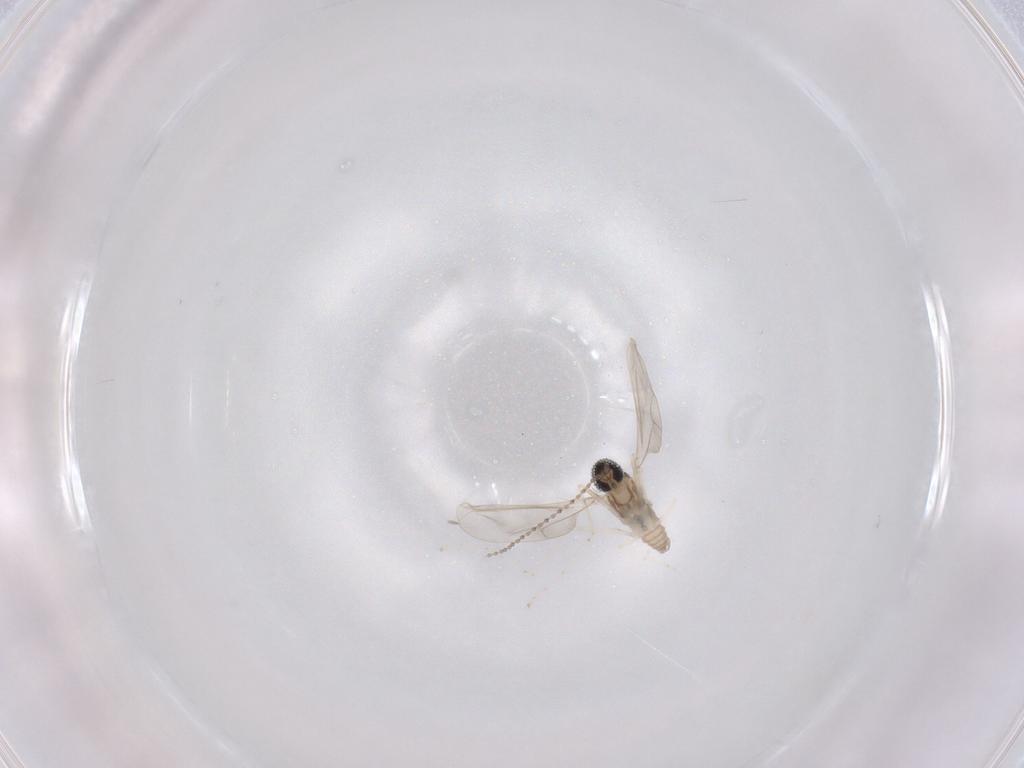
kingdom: Animalia
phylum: Arthropoda
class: Insecta
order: Diptera
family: Cecidomyiidae
